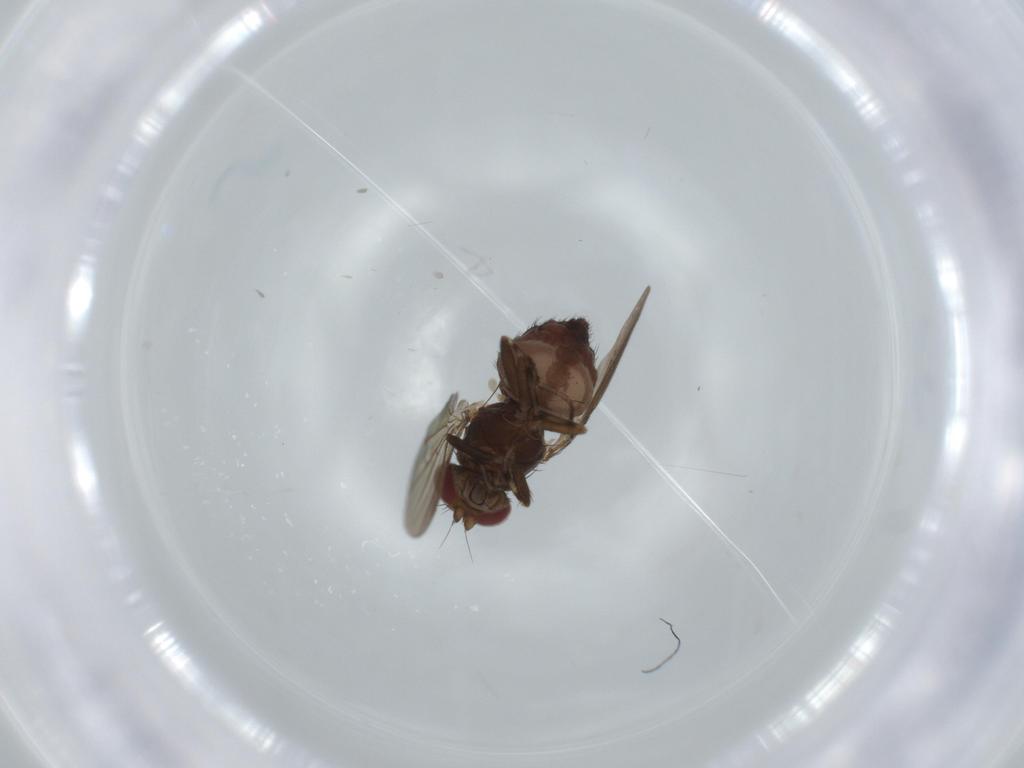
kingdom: Animalia
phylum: Arthropoda
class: Insecta
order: Diptera
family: Heleomyzidae
